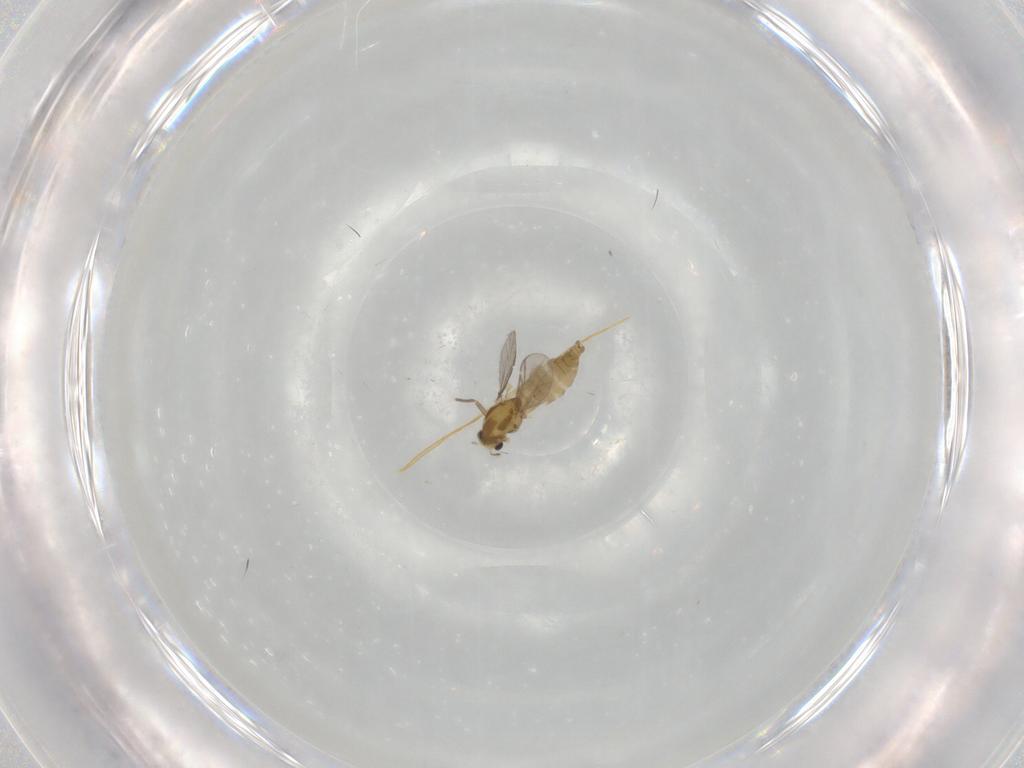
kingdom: Animalia
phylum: Arthropoda
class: Insecta
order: Diptera
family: Chironomidae
